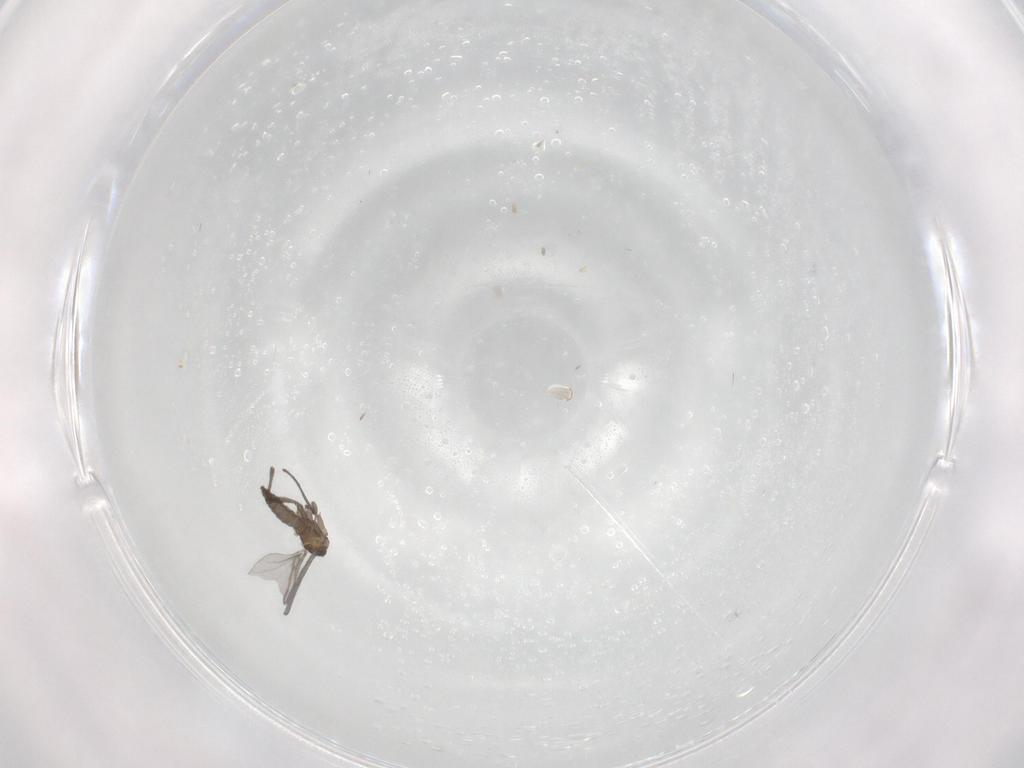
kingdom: Animalia
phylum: Arthropoda
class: Insecta
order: Diptera
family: Sciaridae
